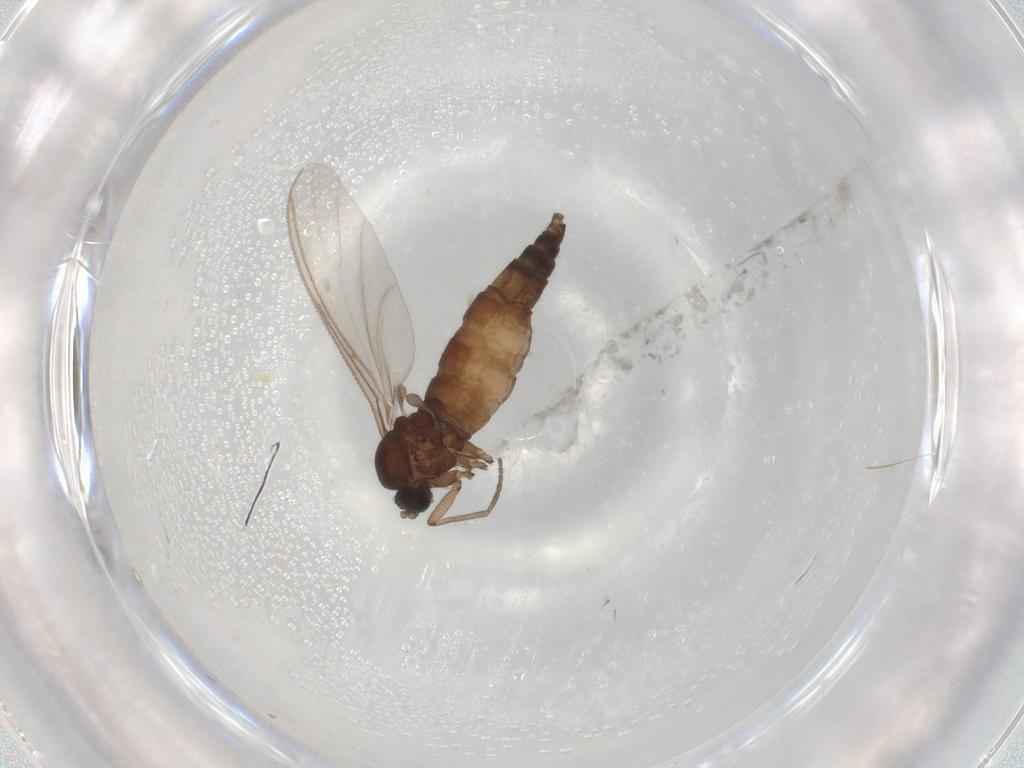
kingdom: Animalia
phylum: Arthropoda
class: Insecta
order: Diptera
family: Sciaridae
